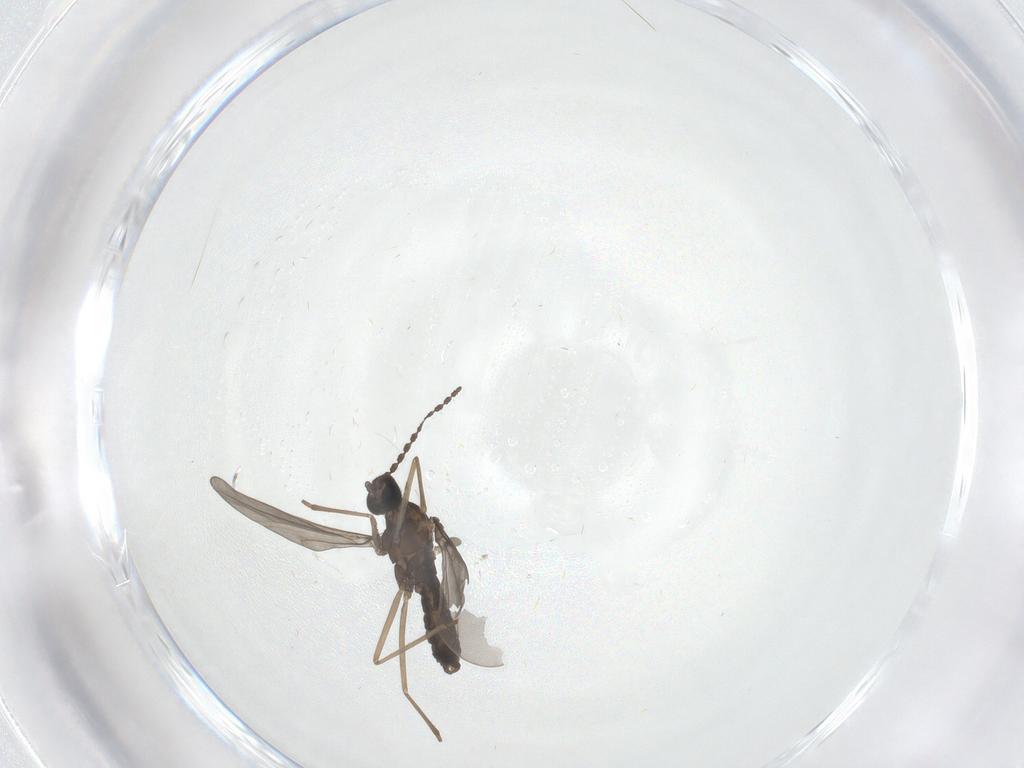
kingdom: Animalia
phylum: Arthropoda
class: Insecta
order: Diptera
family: Cecidomyiidae
